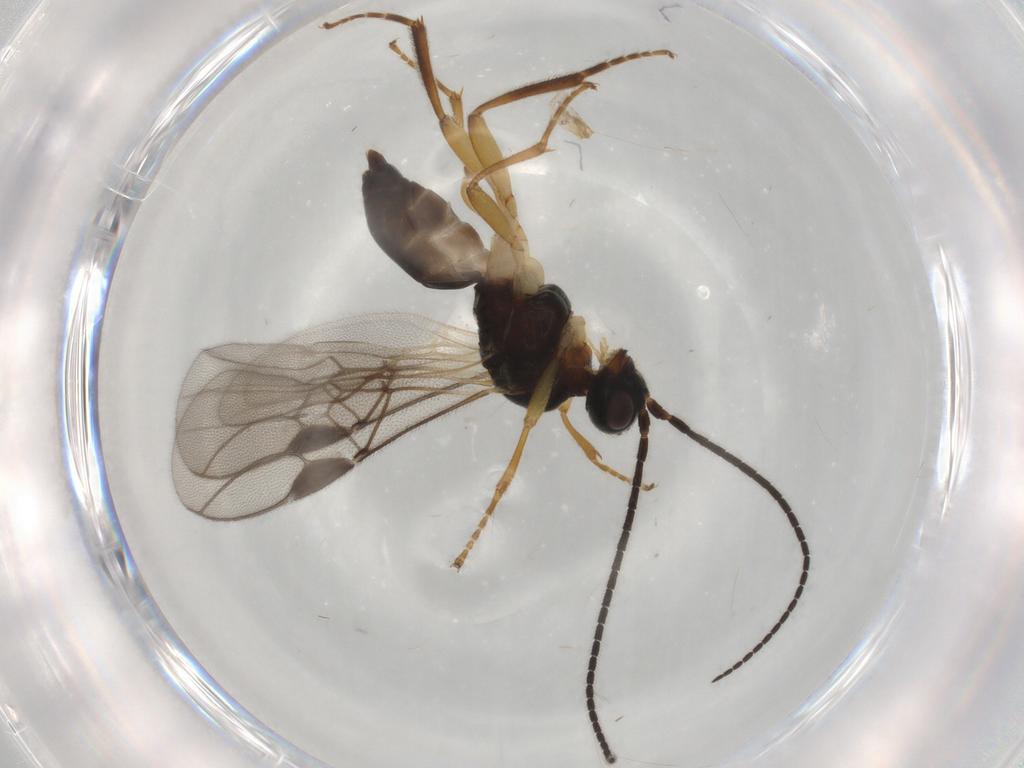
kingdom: Animalia
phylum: Arthropoda
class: Insecta
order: Hymenoptera
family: Braconidae
